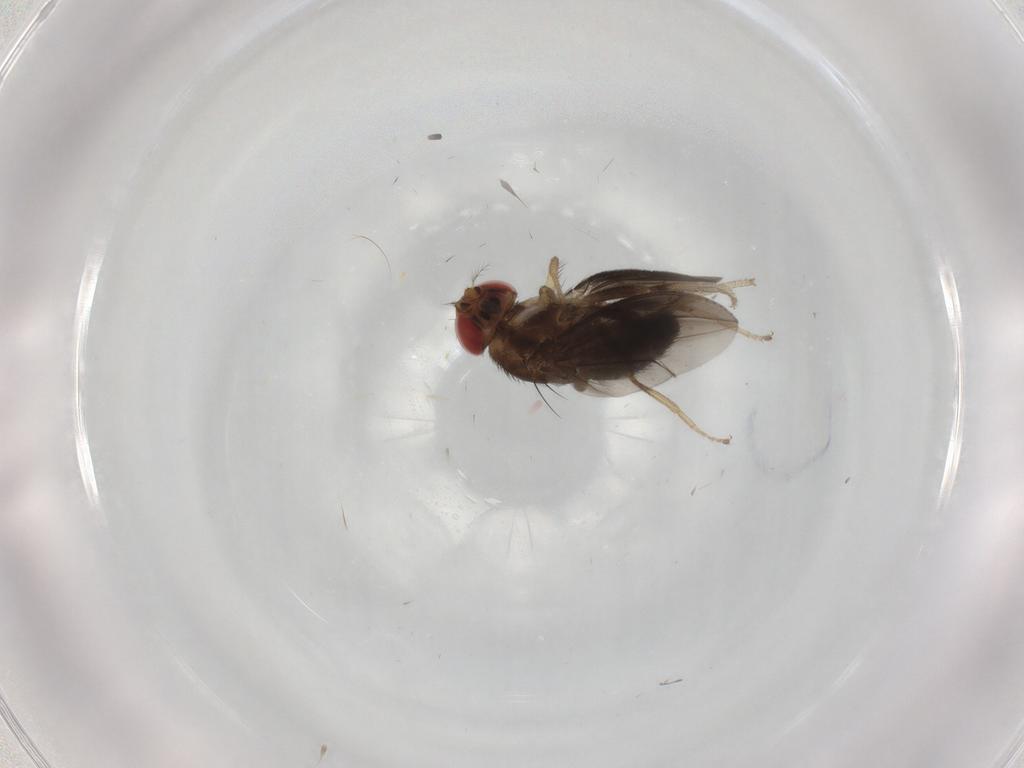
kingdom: Animalia
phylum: Arthropoda
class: Insecta
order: Diptera
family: Drosophilidae
